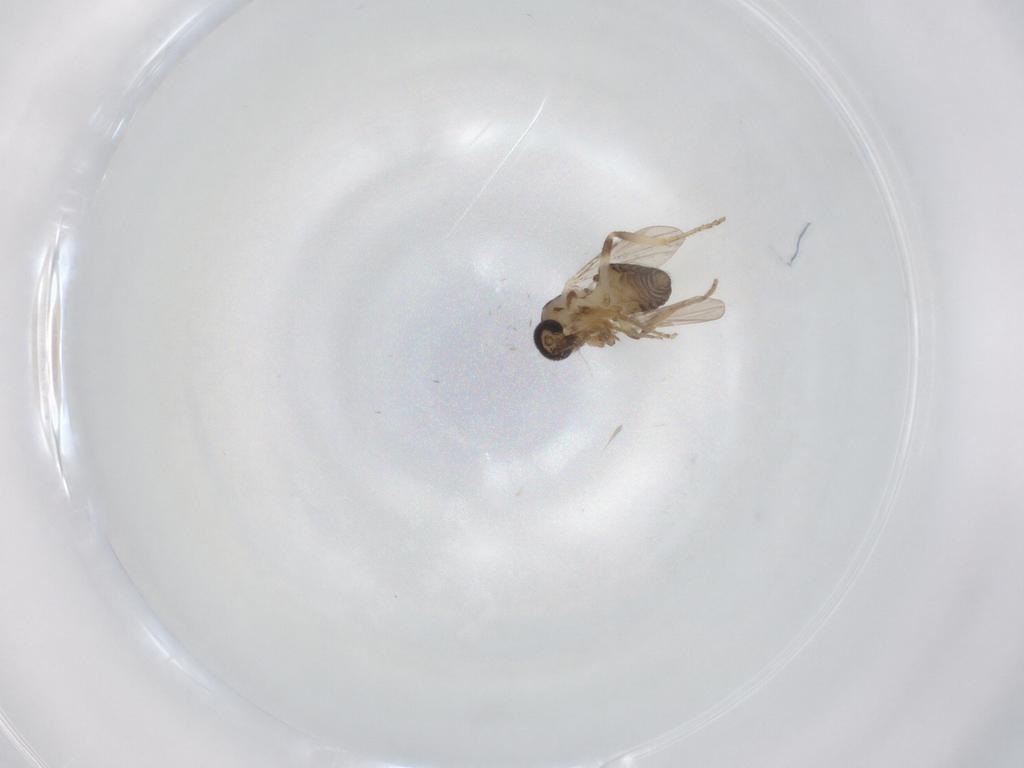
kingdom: Animalia
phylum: Arthropoda
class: Insecta
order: Diptera
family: Ceratopogonidae
